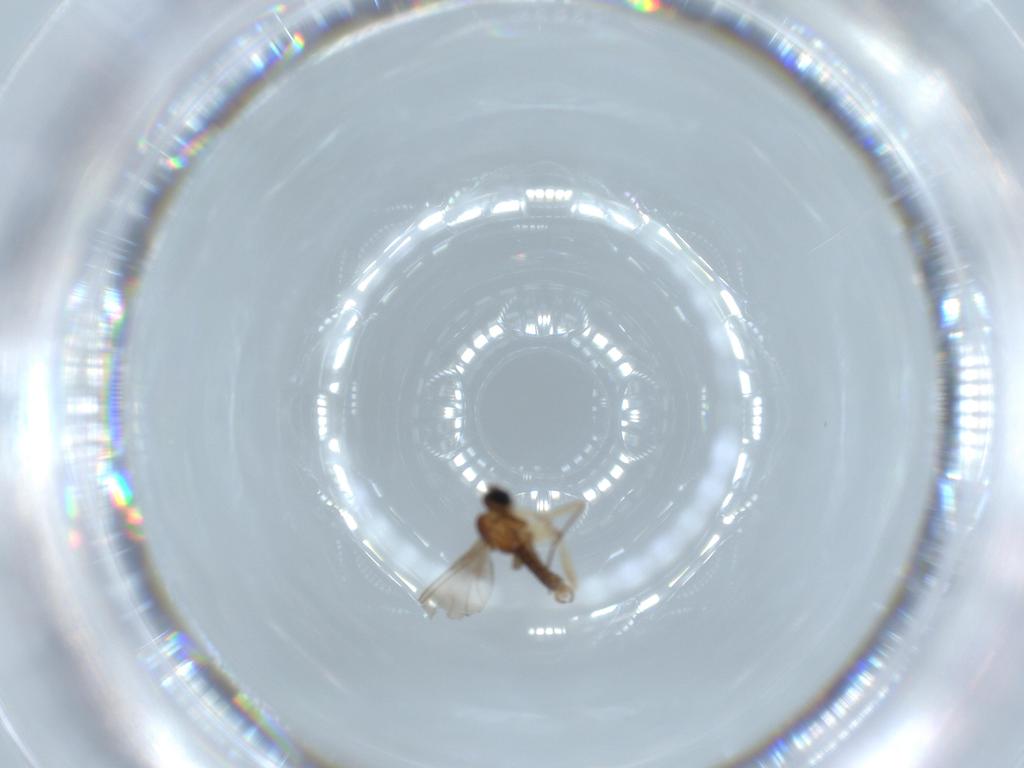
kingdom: Animalia
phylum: Arthropoda
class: Insecta
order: Diptera
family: Sciaridae
